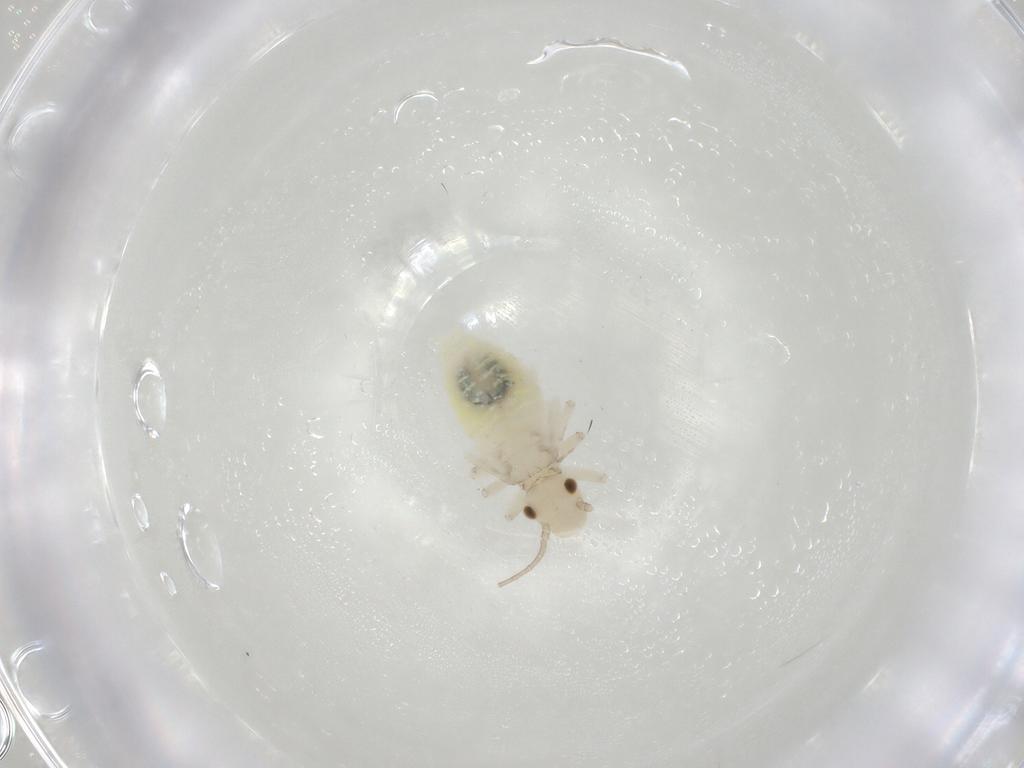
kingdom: Animalia
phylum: Arthropoda
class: Insecta
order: Psocodea
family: Caeciliusidae
